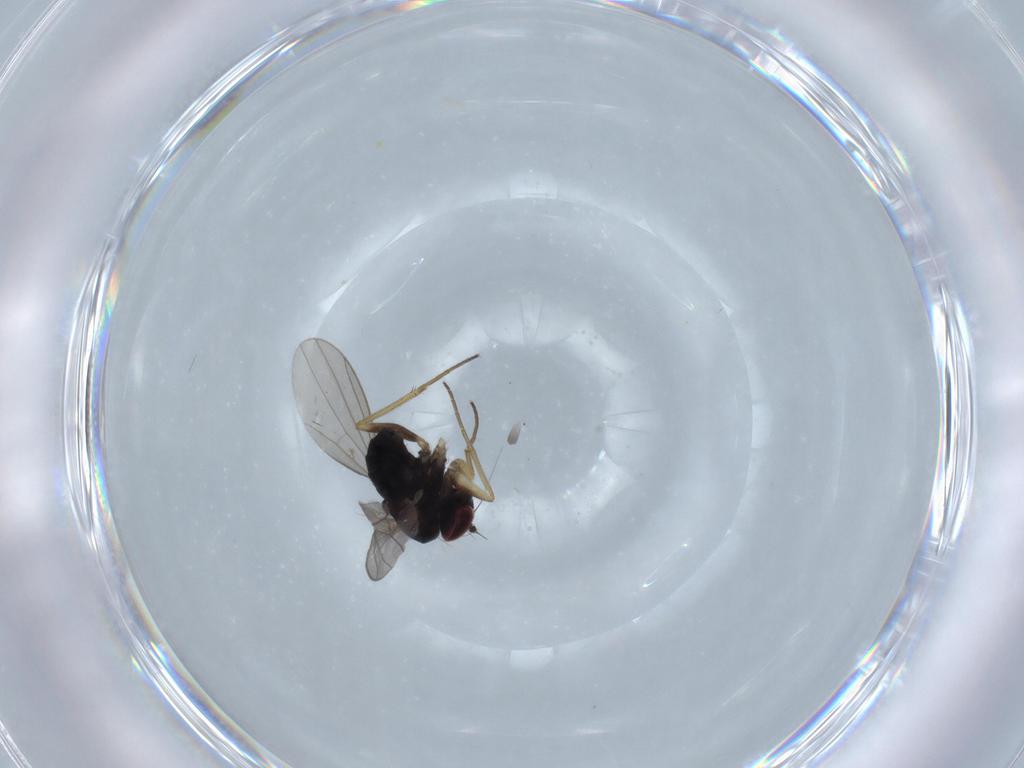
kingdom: Animalia
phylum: Arthropoda
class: Insecta
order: Diptera
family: Dolichopodidae
